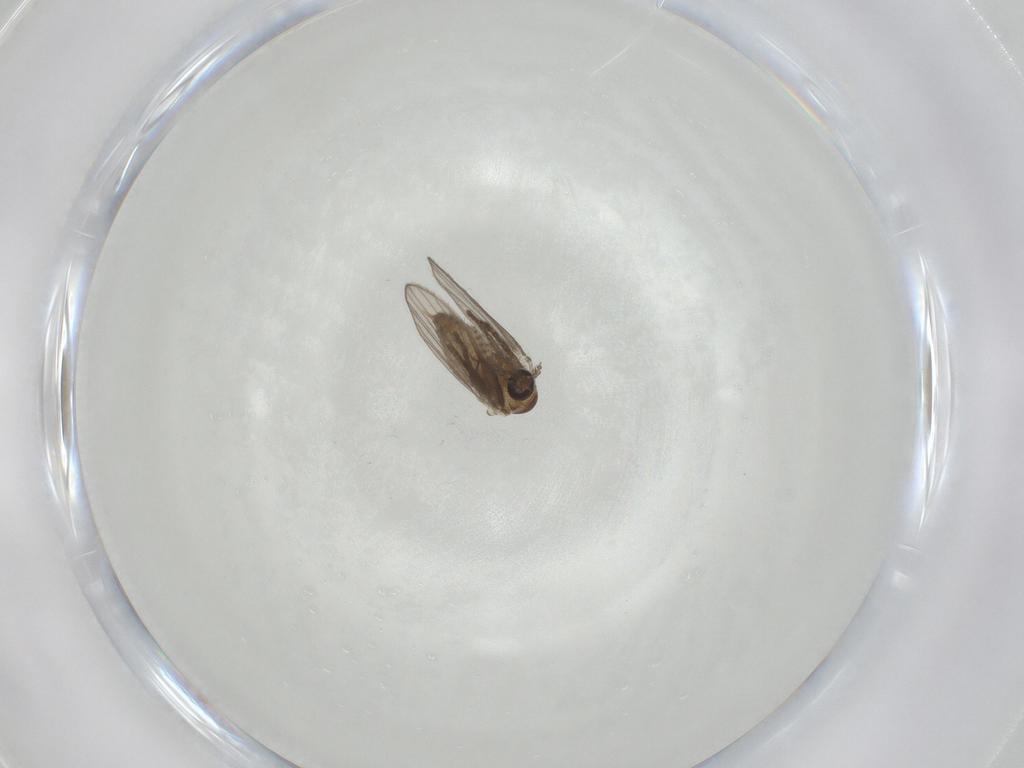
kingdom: Animalia
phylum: Arthropoda
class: Insecta
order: Diptera
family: Psychodidae
